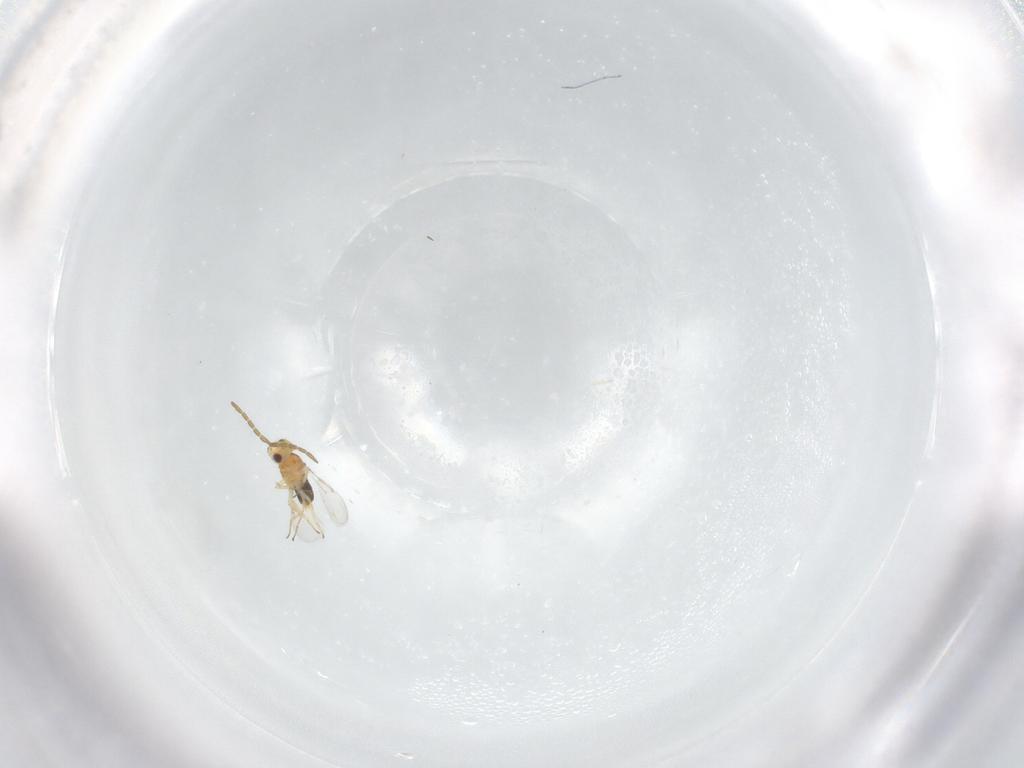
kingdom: Animalia
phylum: Arthropoda
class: Insecta
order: Hymenoptera
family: Aphelinidae
